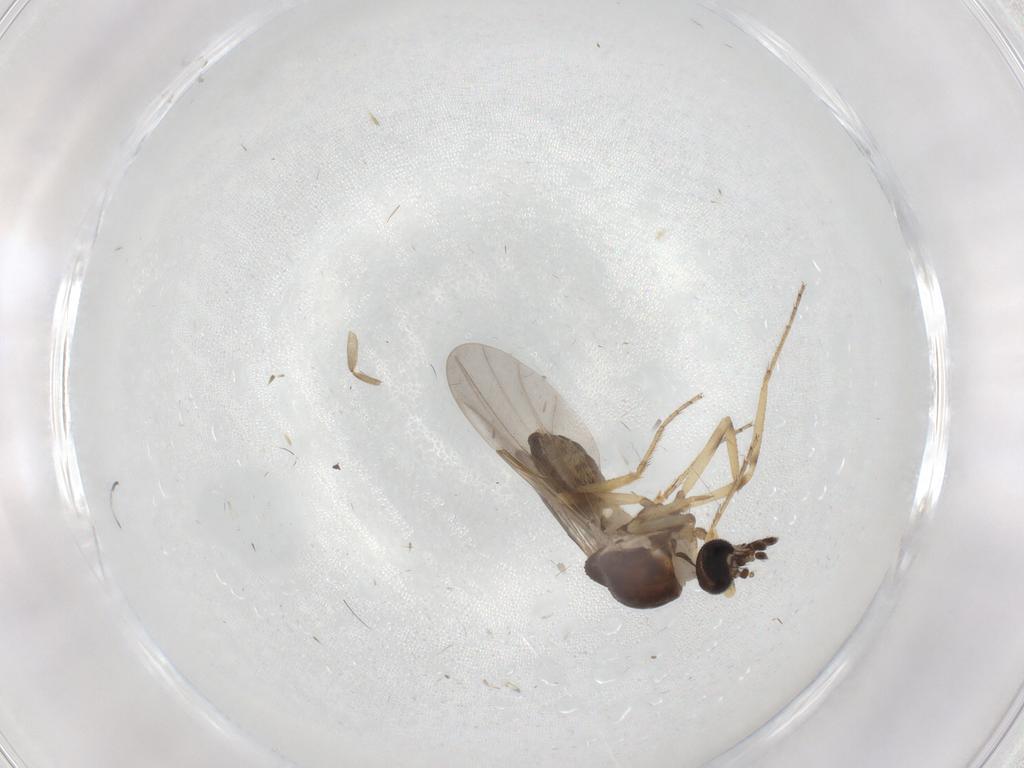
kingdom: Animalia
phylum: Arthropoda
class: Insecta
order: Diptera
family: Ceratopogonidae
